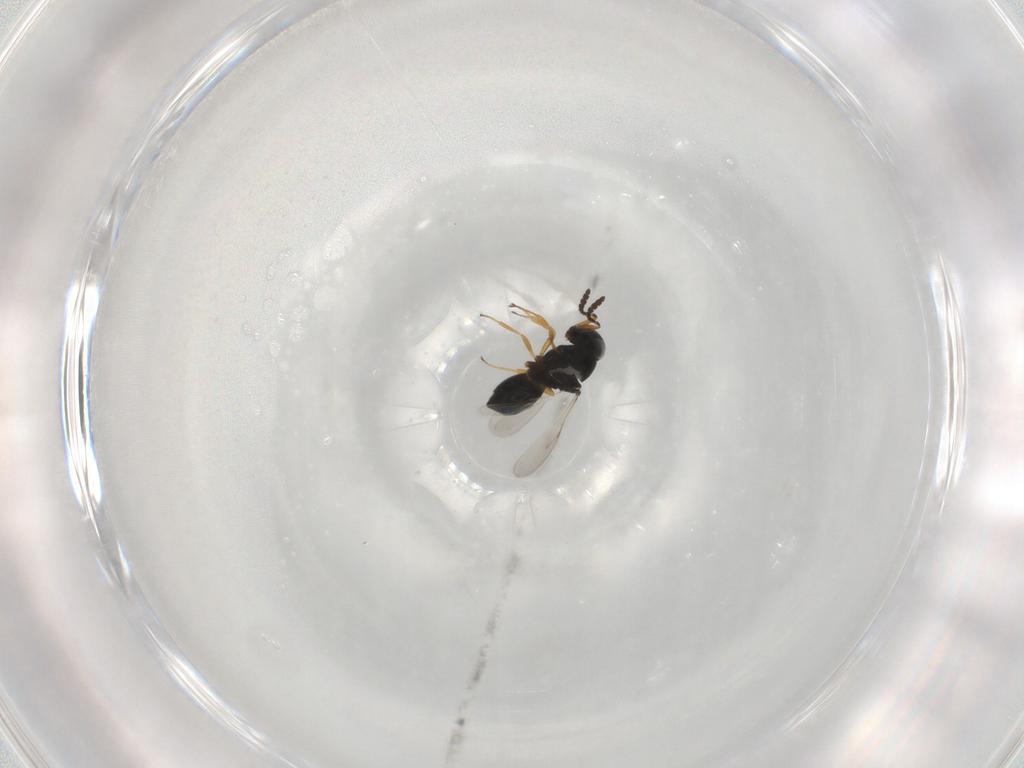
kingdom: Animalia
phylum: Arthropoda
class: Insecta
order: Hymenoptera
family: Scelionidae
